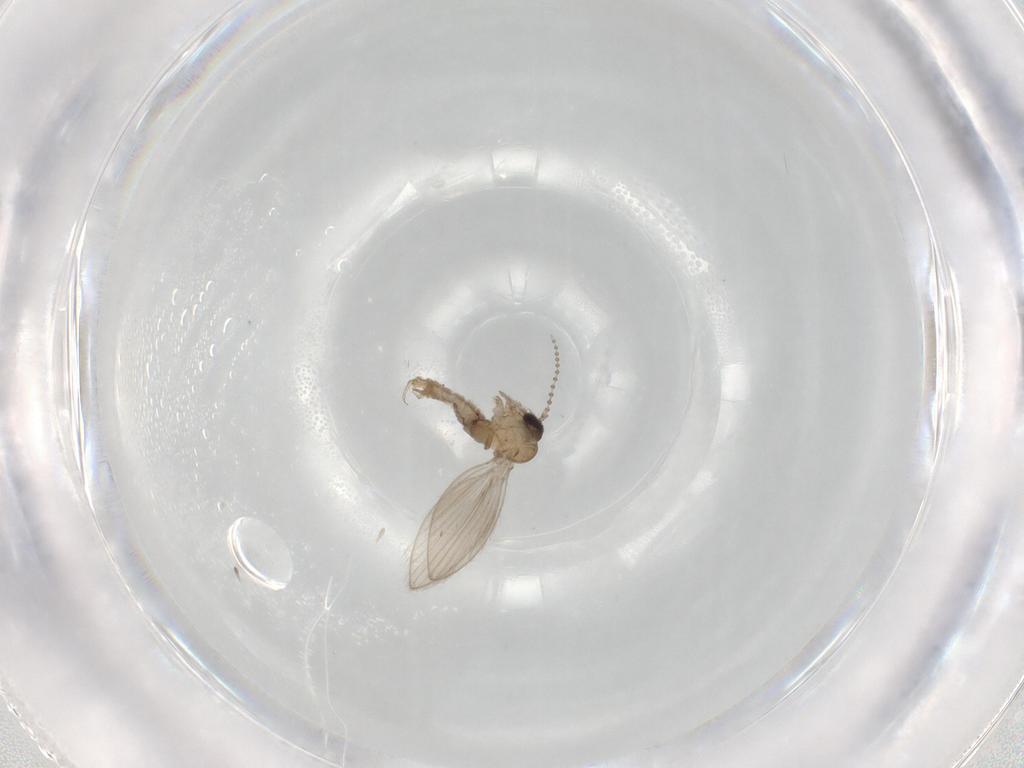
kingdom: Animalia
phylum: Arthropoda
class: Insecta
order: Diptera
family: Psychodidae
